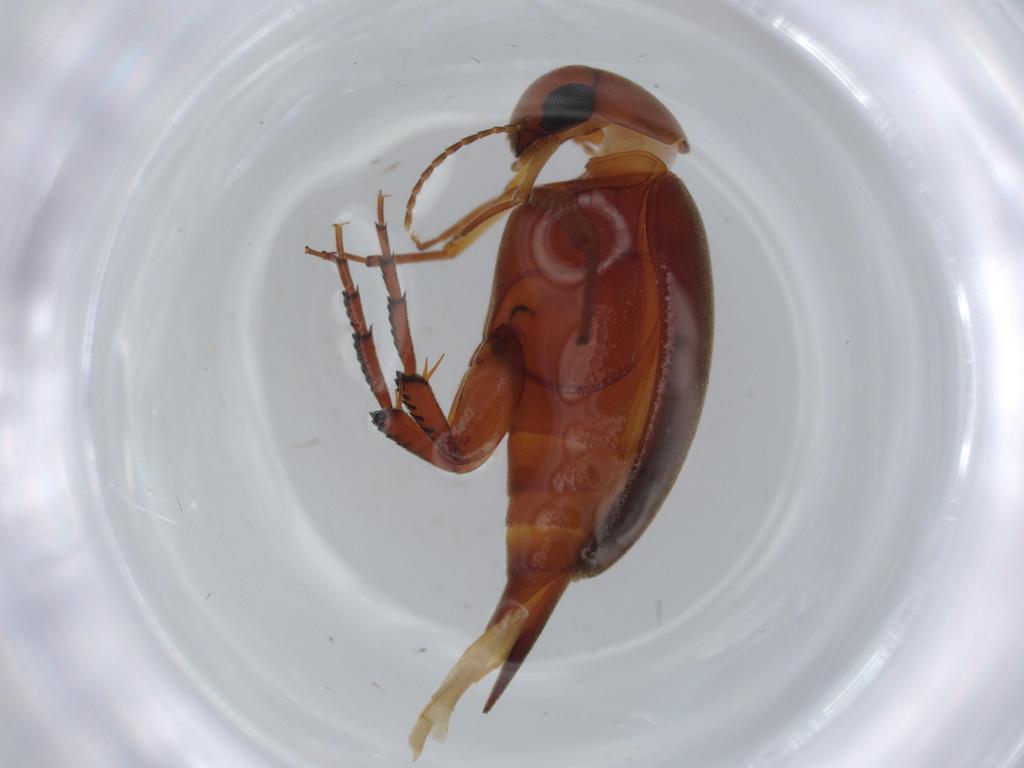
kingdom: Animalia
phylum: Arthropoda
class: Insecta
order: Coleoptera
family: Mordellidae
